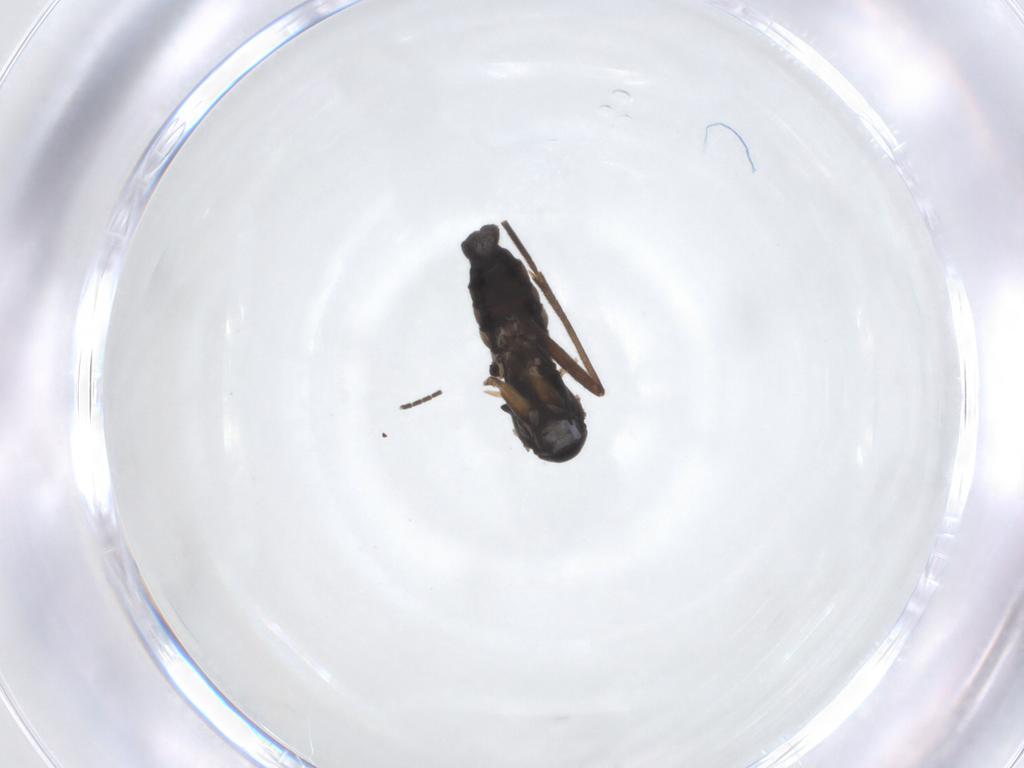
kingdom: Animalia
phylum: Arthropoda
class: Insecta
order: Diptera
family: Sciaridae
